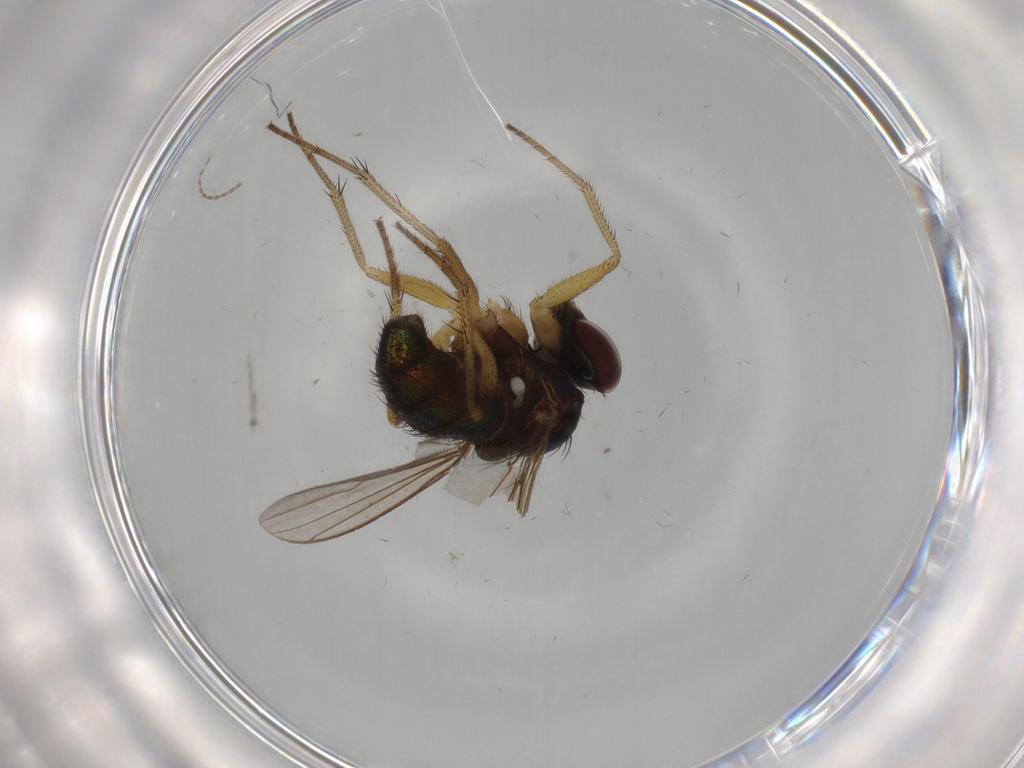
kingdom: Animalia
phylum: Arthropoda
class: Insecta
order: Diptera
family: Dolichopodidae
